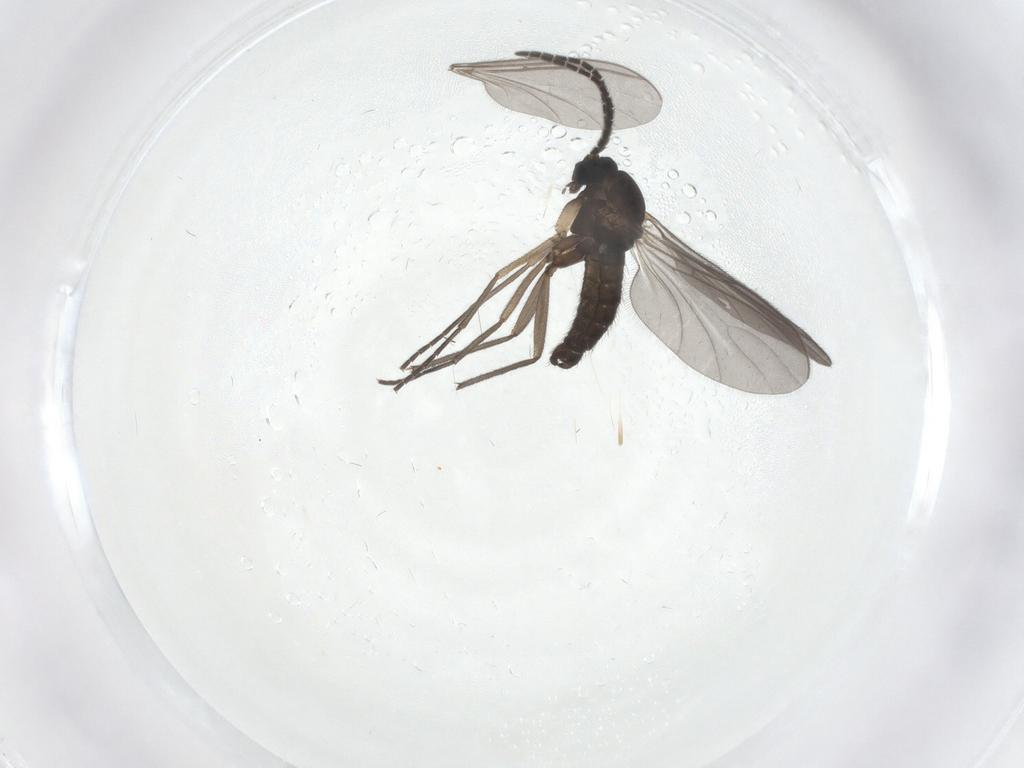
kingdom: Animalia
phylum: Arthropoda
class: Insecta
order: Diptera
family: Sciaridae
